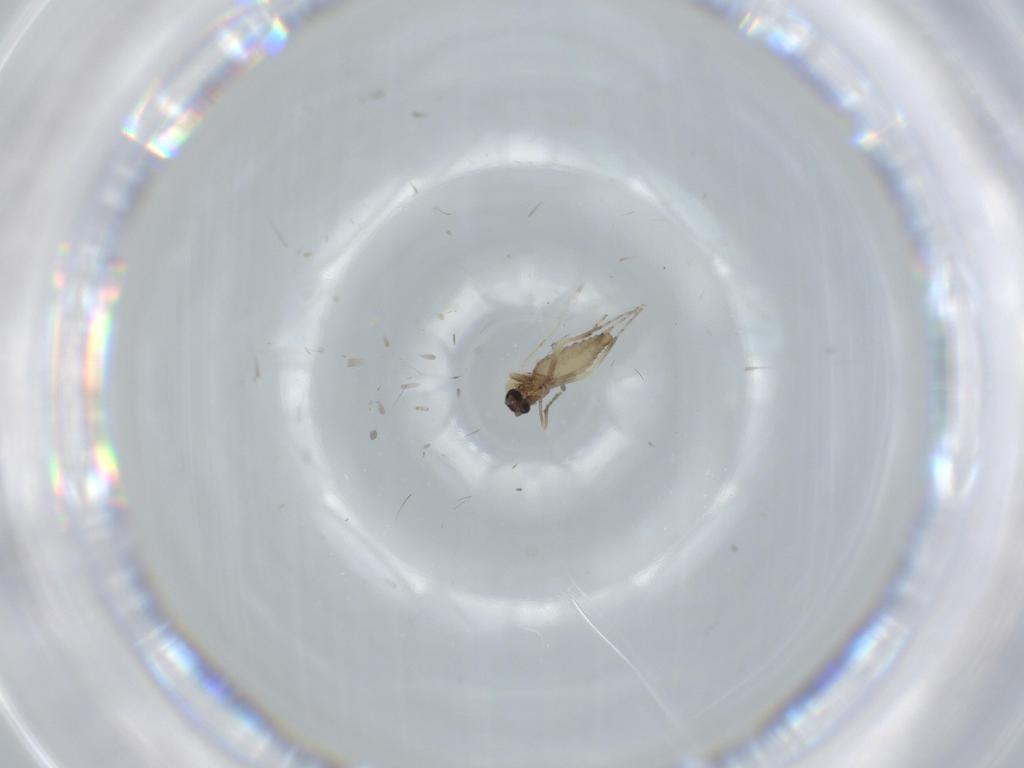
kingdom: Animalia
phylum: Arthropoda
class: Insecta
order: Diptera
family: Ceratopogonidae
